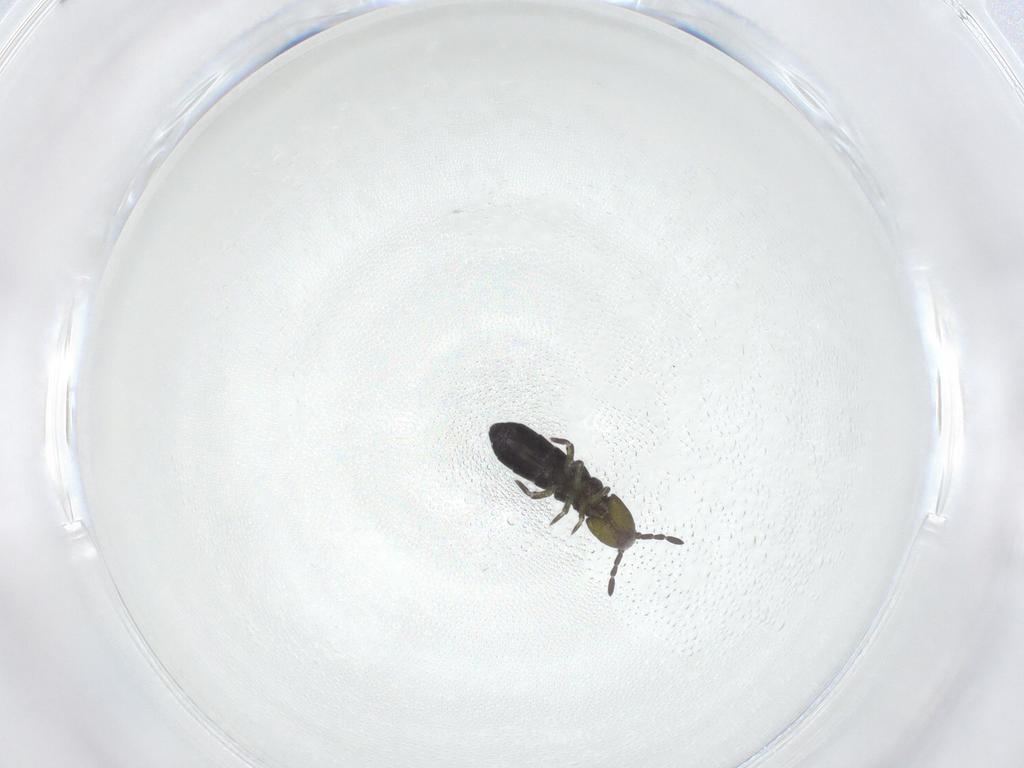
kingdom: Animalia
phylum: Arthropoda
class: Collembola
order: Entomobryomorpha
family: Isotomidae
